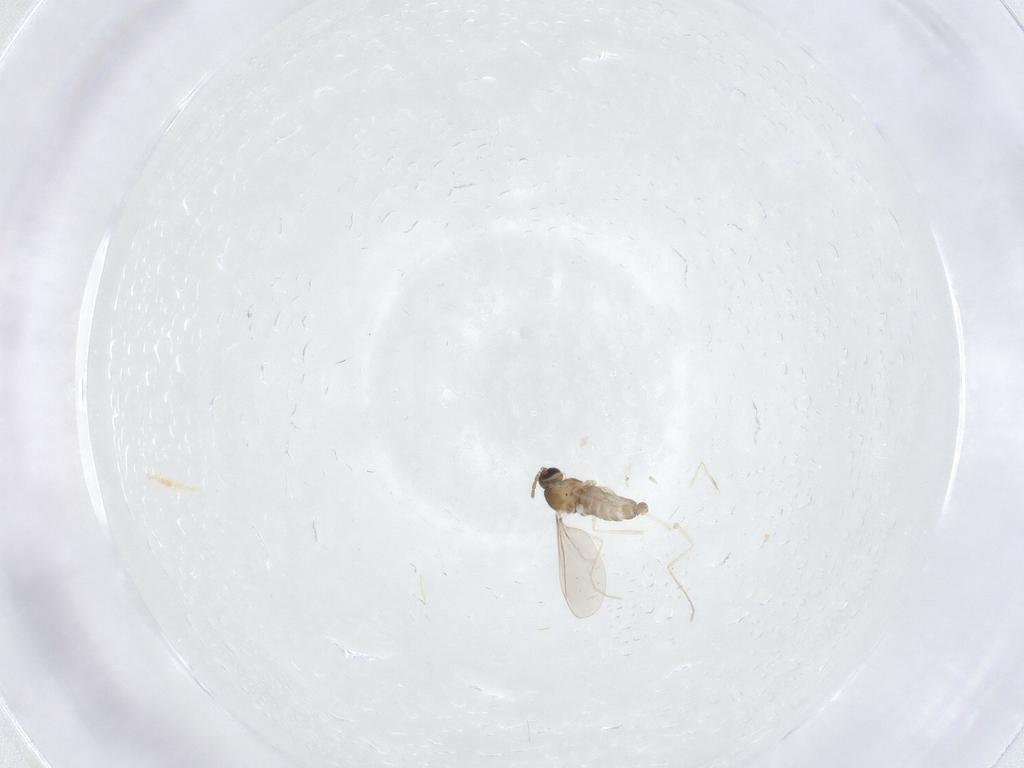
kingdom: Animalia
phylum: Arthropoda
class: Insecta
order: Diptera
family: Cecidomyiidae
